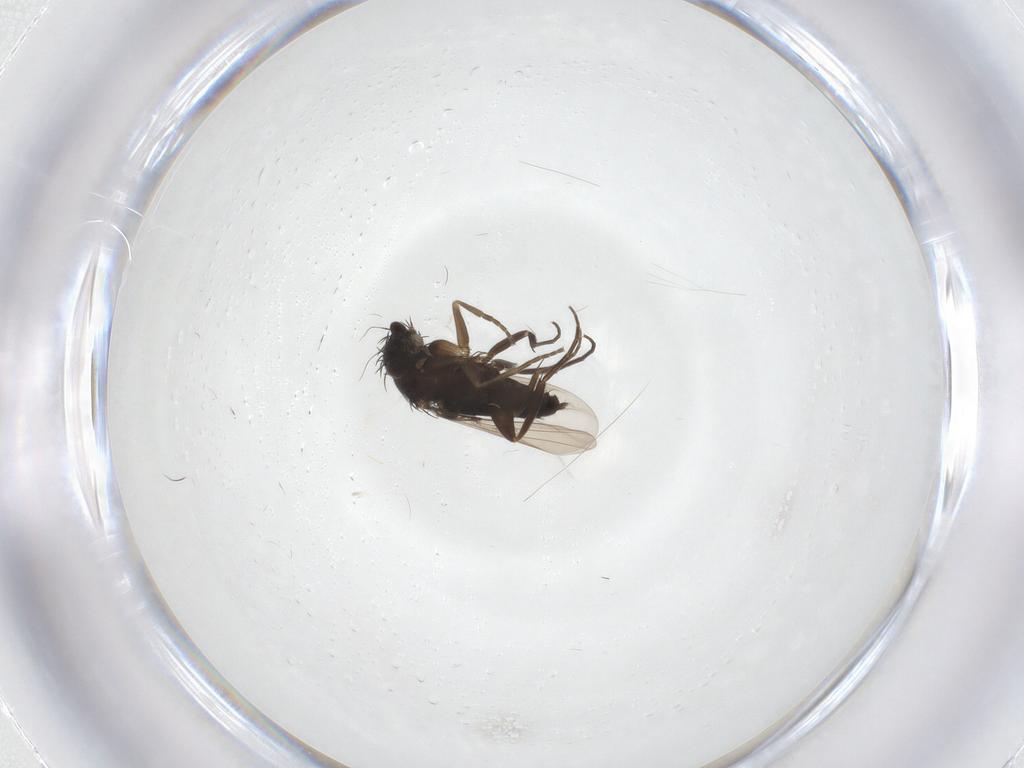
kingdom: Animalia
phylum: Arthropoda
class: Insecta
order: Diptera
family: Phoridae
